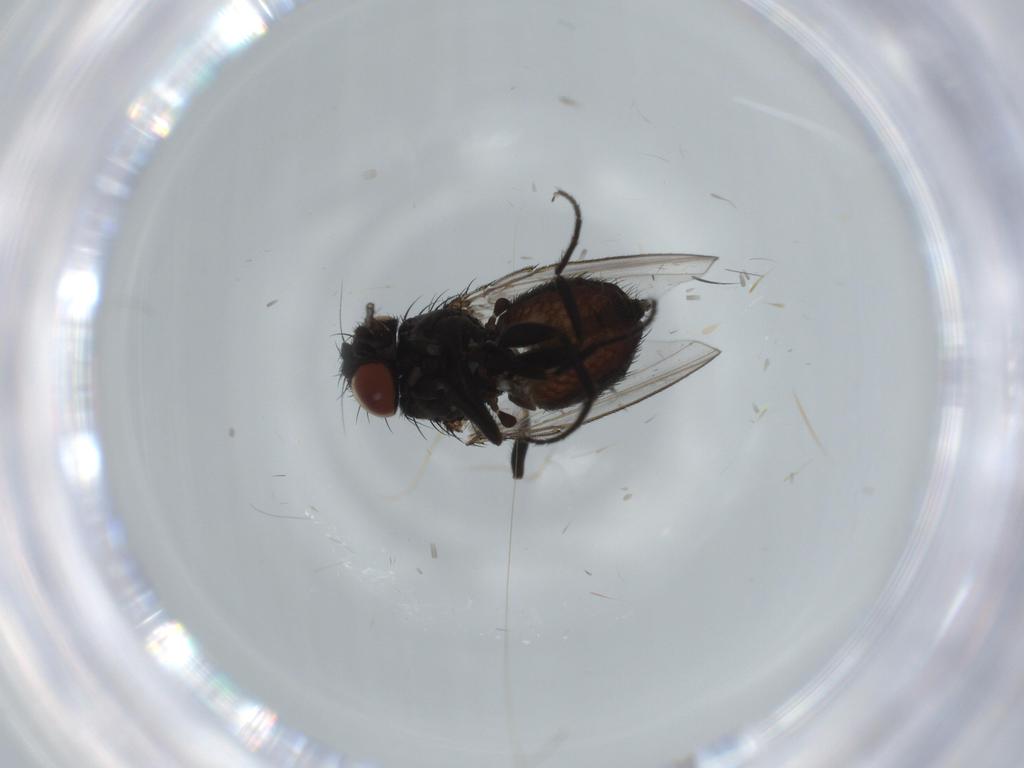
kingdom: Animalia
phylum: Arthropoda
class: Insecta
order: Diptera
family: Milichiidae
